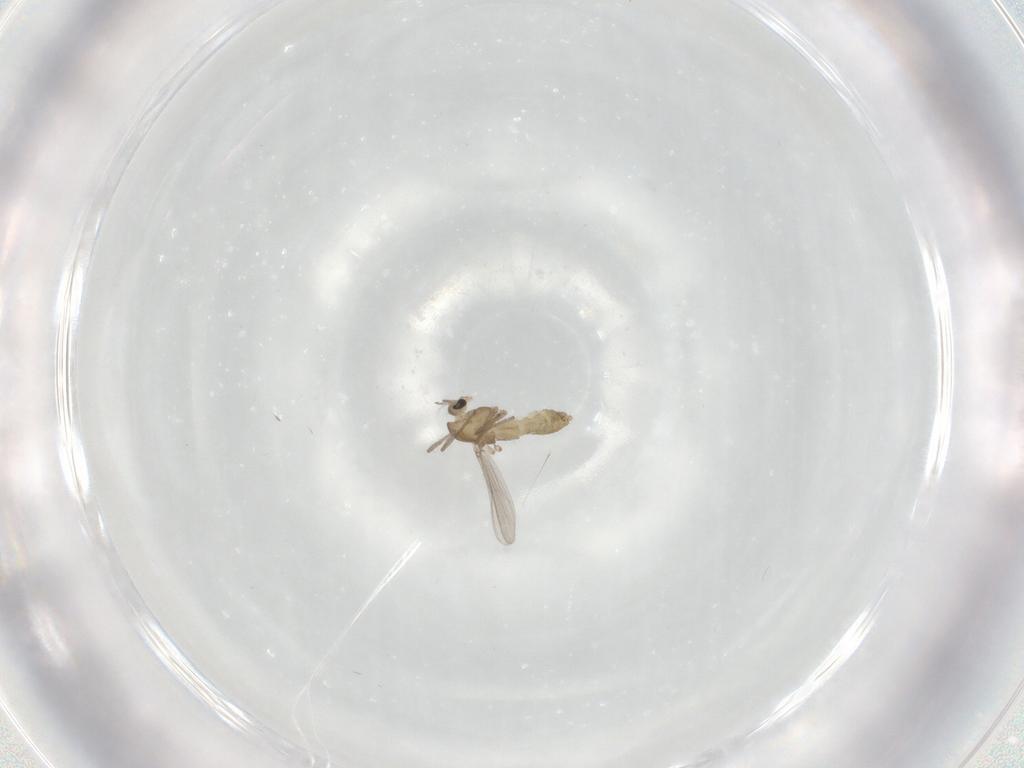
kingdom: Animalia
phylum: Arthropoda
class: Insecta
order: Diptera
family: Chironomidae
